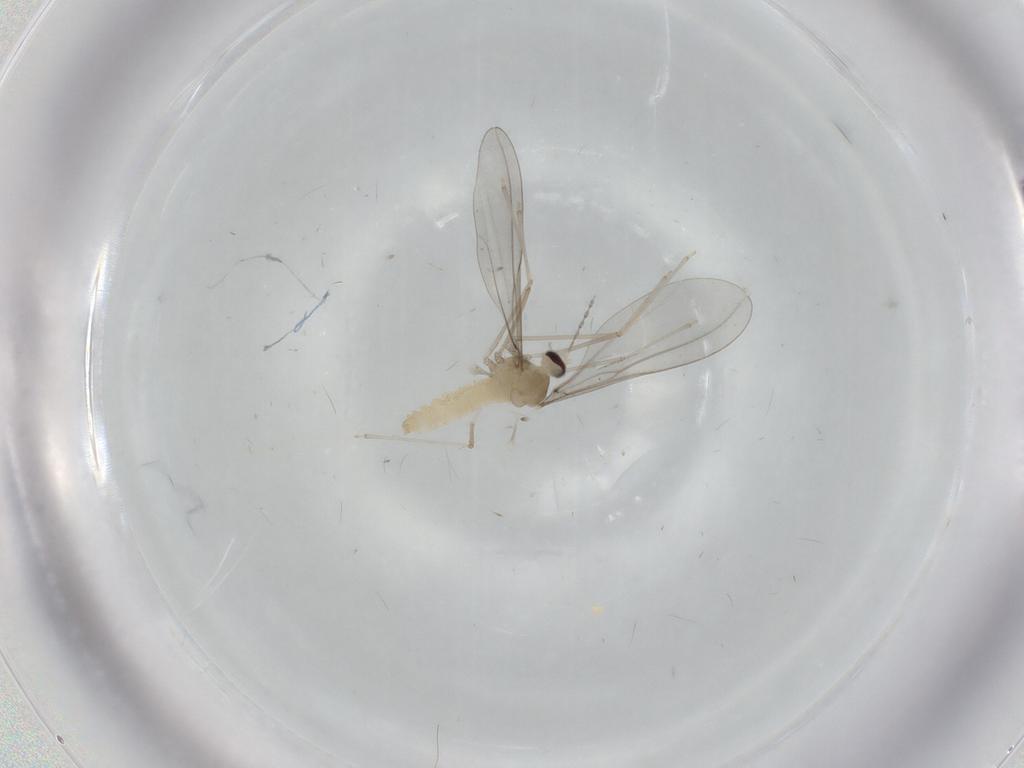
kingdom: Animalia
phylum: Arthropoda
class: Insecta
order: Diptera
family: Cecidomyiidae
